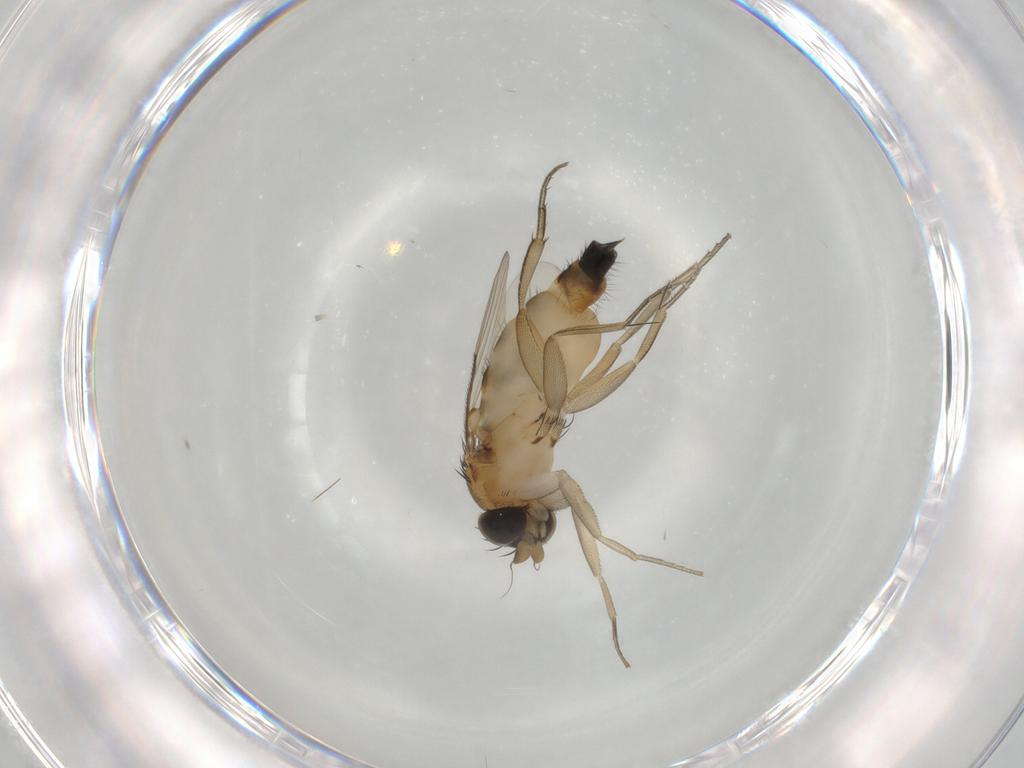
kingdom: Animalia
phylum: Arthropoda
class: Insecta
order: Diptera
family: Phoridae
